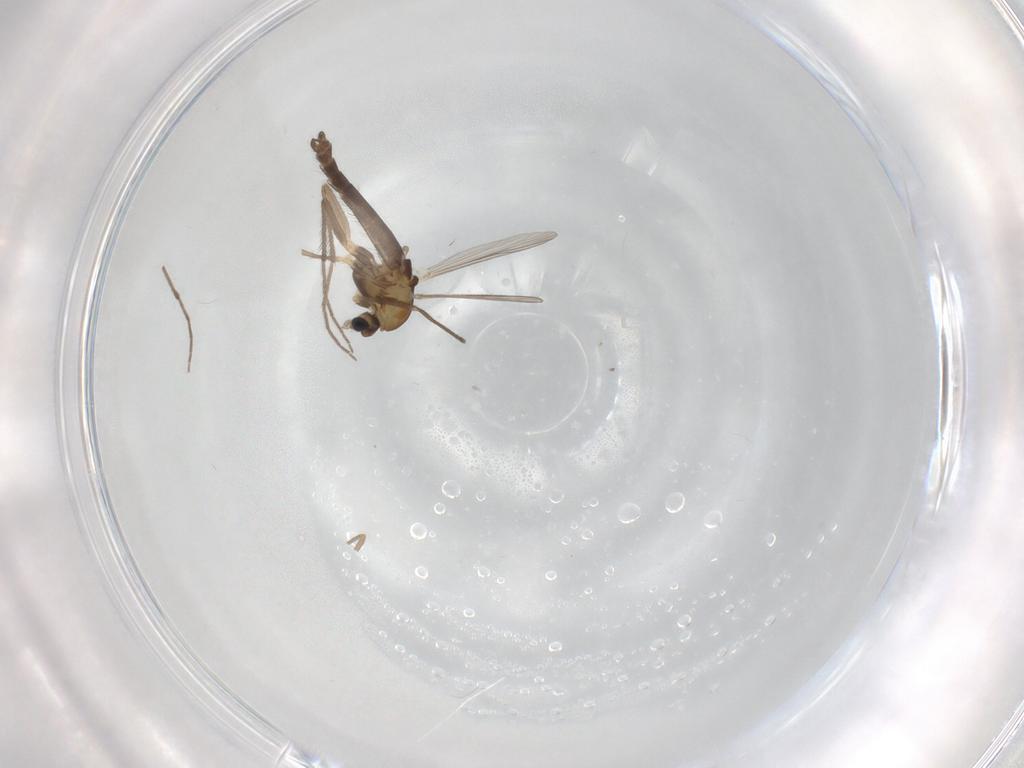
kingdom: Animalia
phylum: Arthropoda
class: Insecta
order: Diptera
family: Chironomidae
